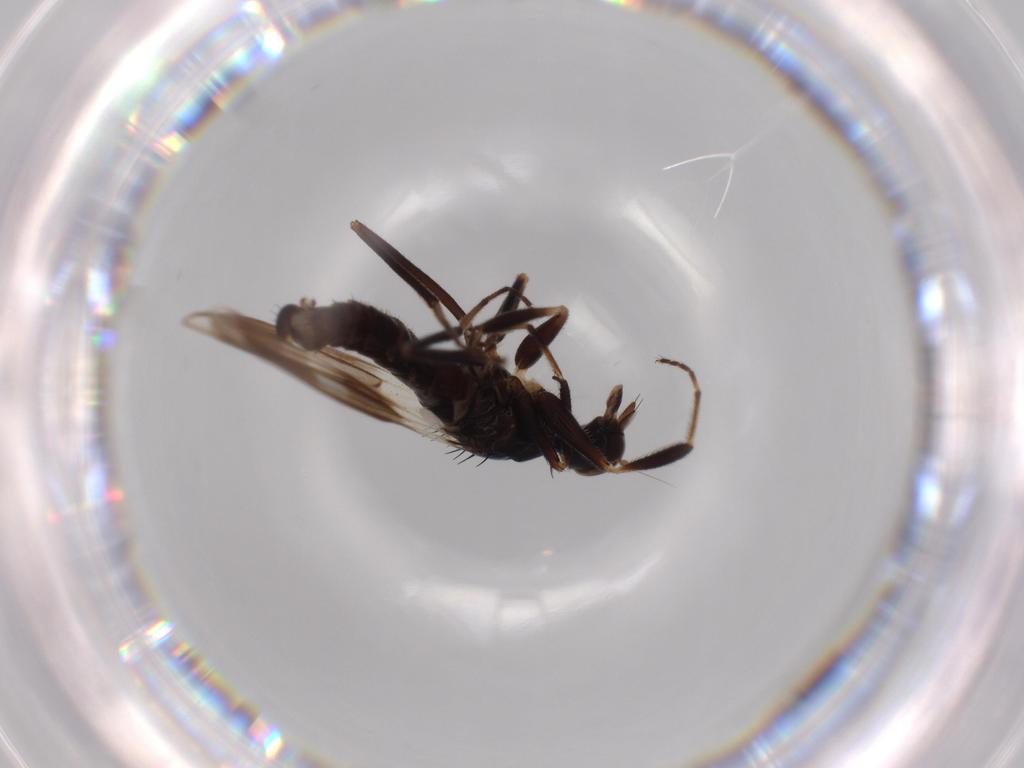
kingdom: Animalia
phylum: Arthropoda
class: Insecta
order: Diptera
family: Hybotidae
